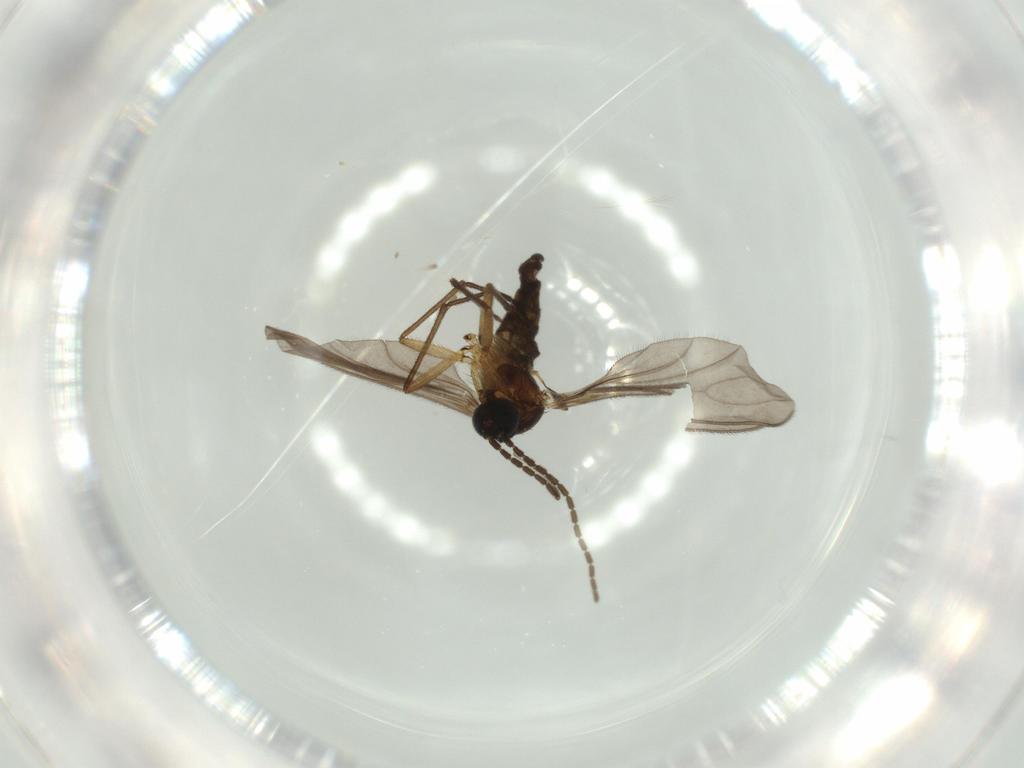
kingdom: Animalia
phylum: Arthropoda
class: Insecta
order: Diptera
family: Sciaridae
